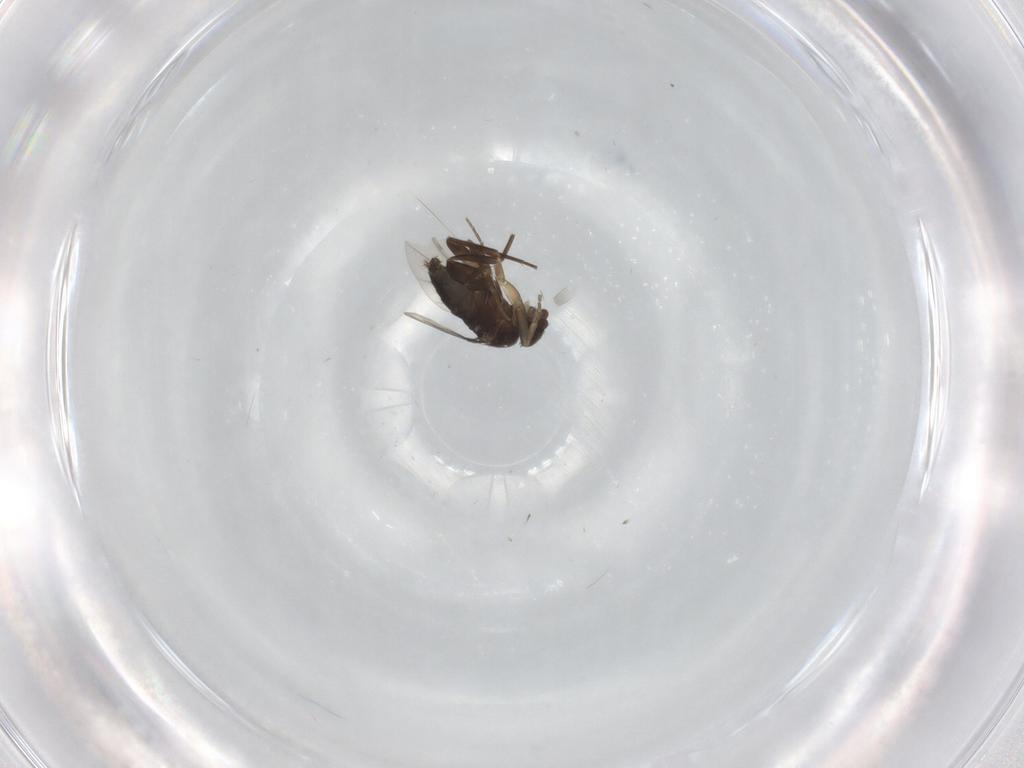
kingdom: Animalia
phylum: Arthropoda
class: Insecta
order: Diptera
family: Phoridae
